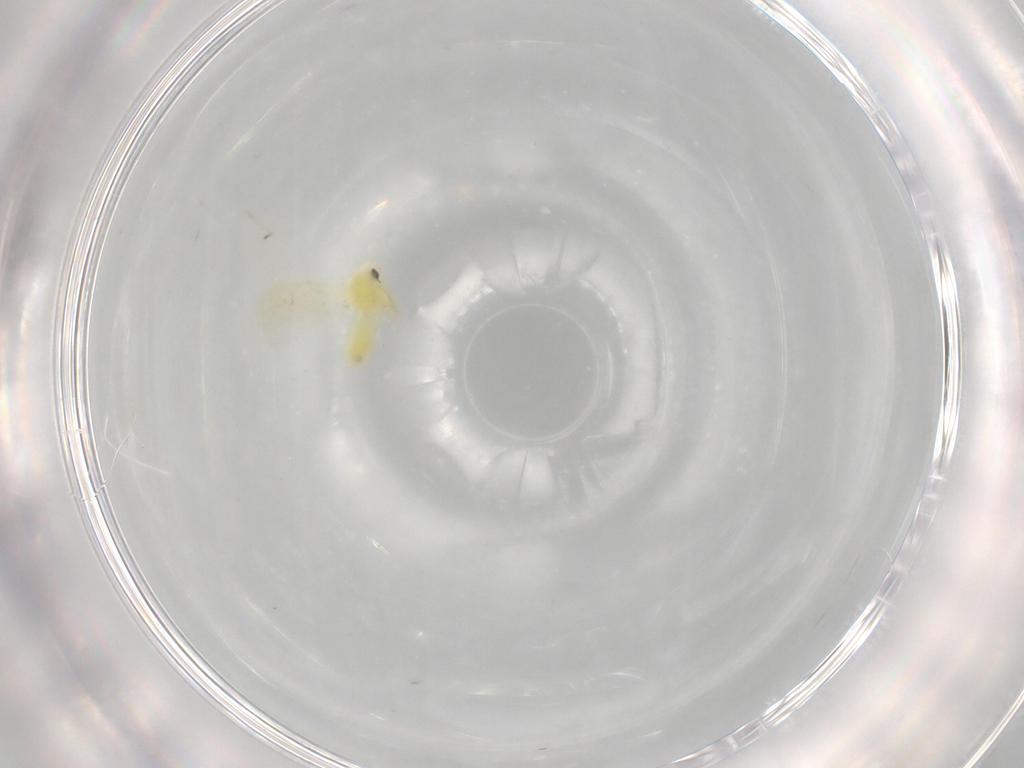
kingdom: Animalia
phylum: Arthropoda
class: Insecta
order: Hemiptera
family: Aleyrodidae
